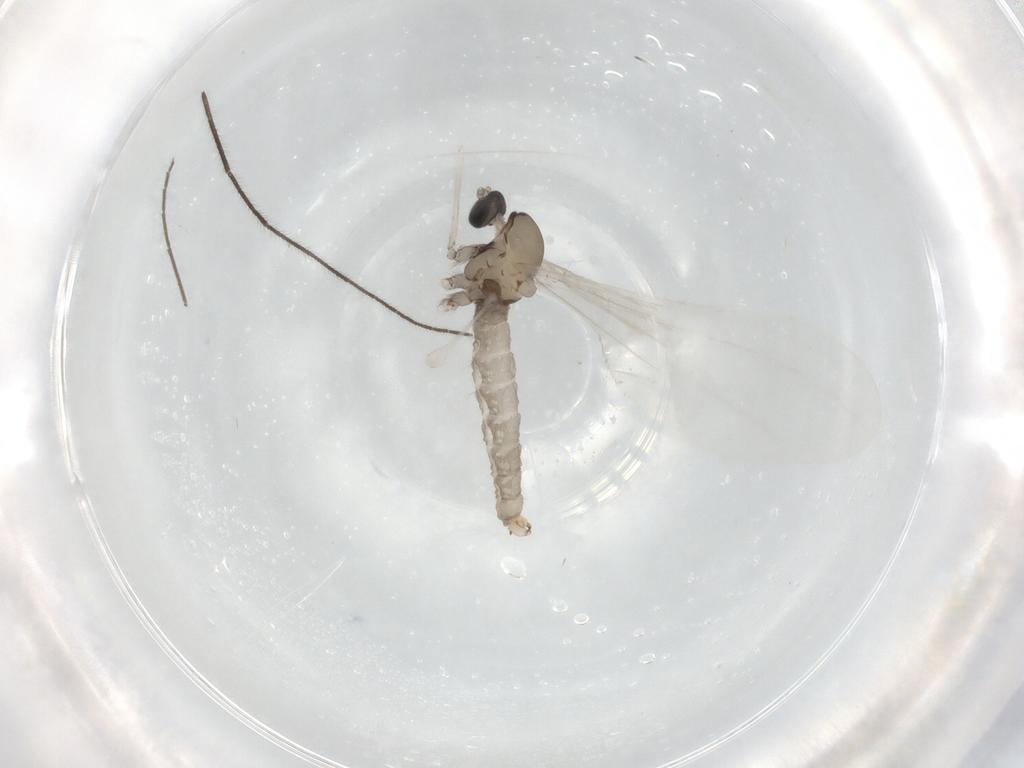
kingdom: Animalia
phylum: Arthropoda
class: Insecta
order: Diptera
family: Cecidomyiidae
